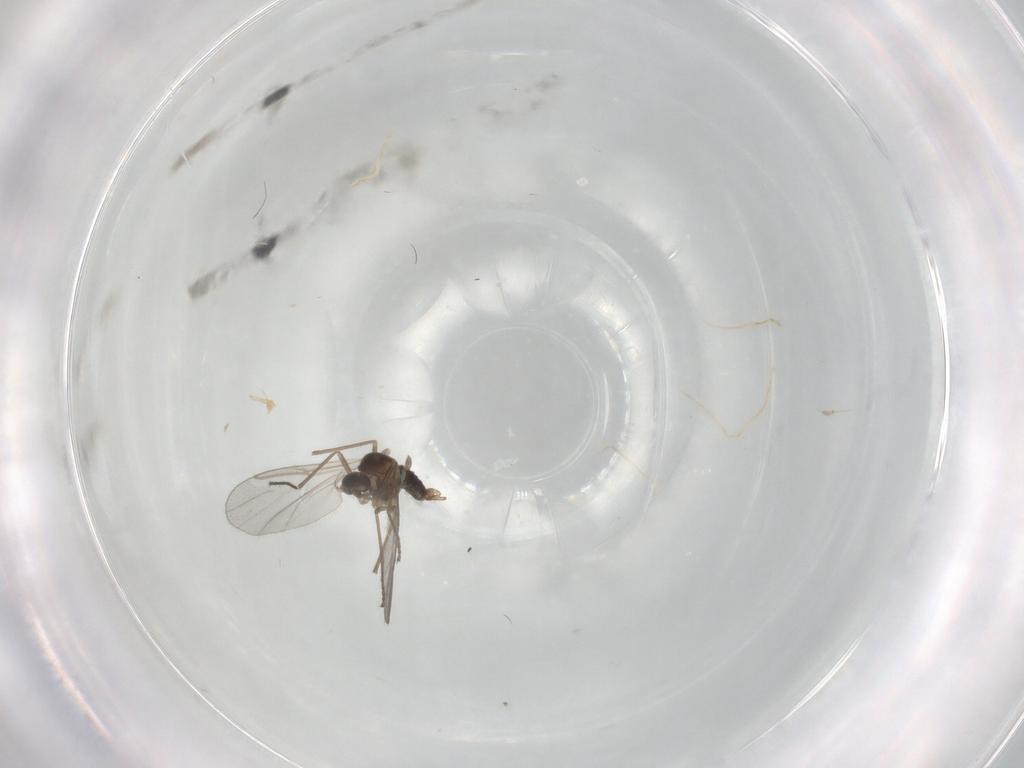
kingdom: Animalia
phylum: Arthropoda
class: Insecta
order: Diptera
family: Cecidomyiidae
